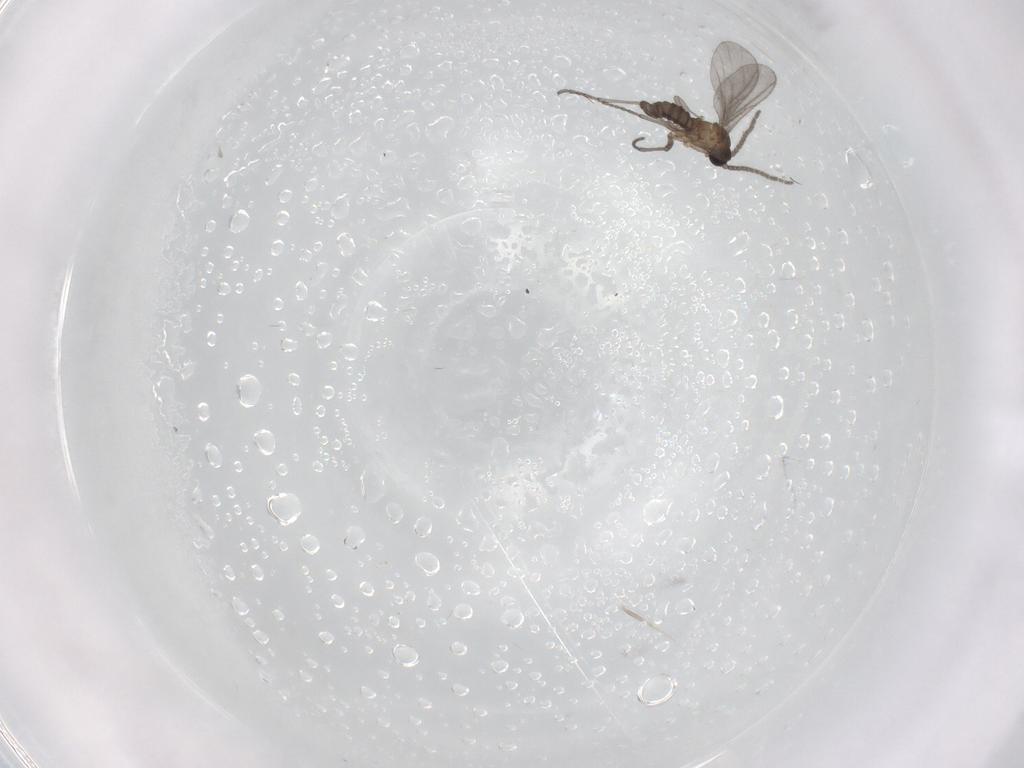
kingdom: Animalia
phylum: Arthropoda
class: Insecta
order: Diptera
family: Sciaridae
